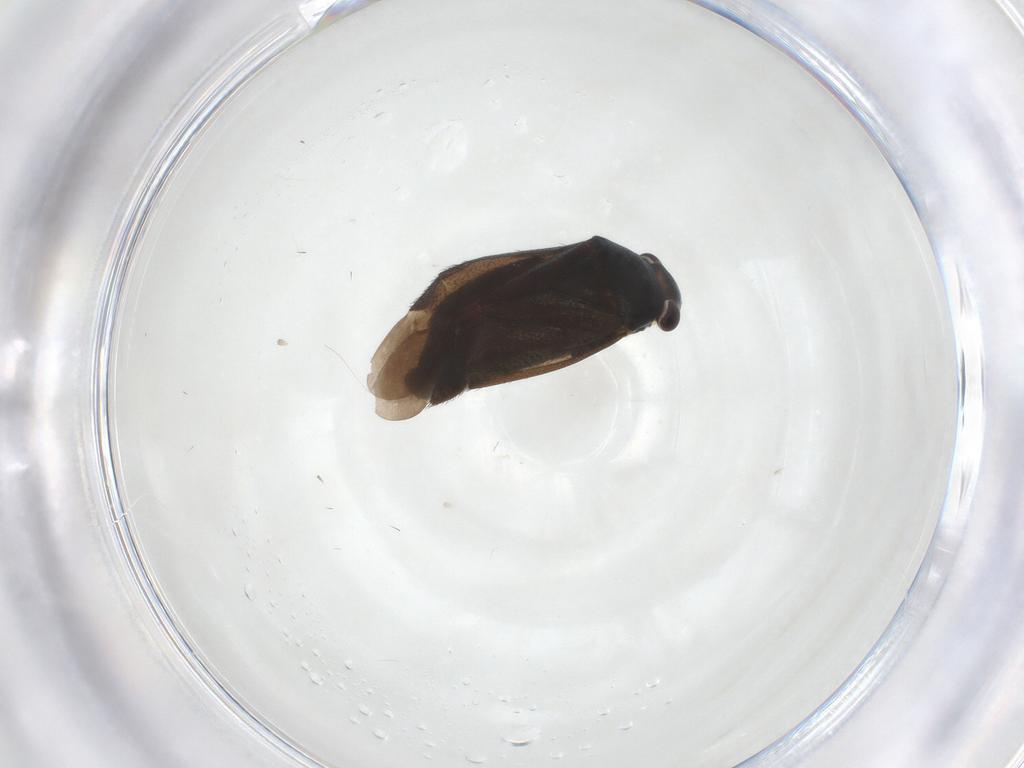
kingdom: Animalia
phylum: Arthropoda
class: Insecta
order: Hemiptera
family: Miridae
